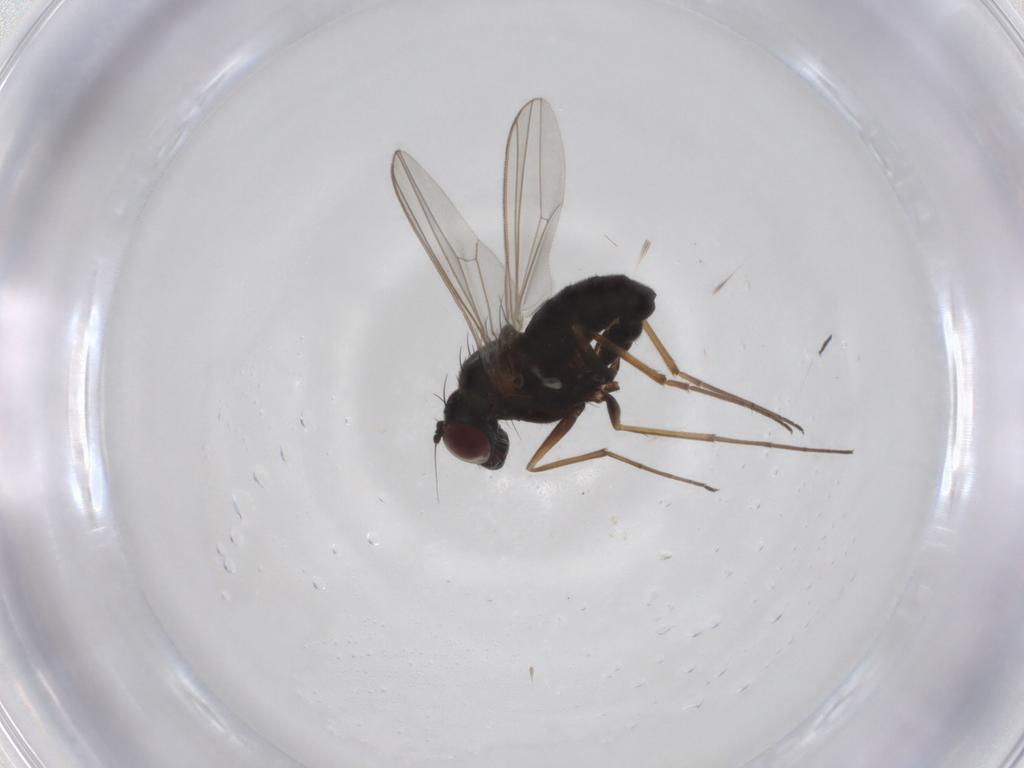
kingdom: Animalia
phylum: Arthropoda
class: Insecta
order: Diptera
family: Dolichopodidae
